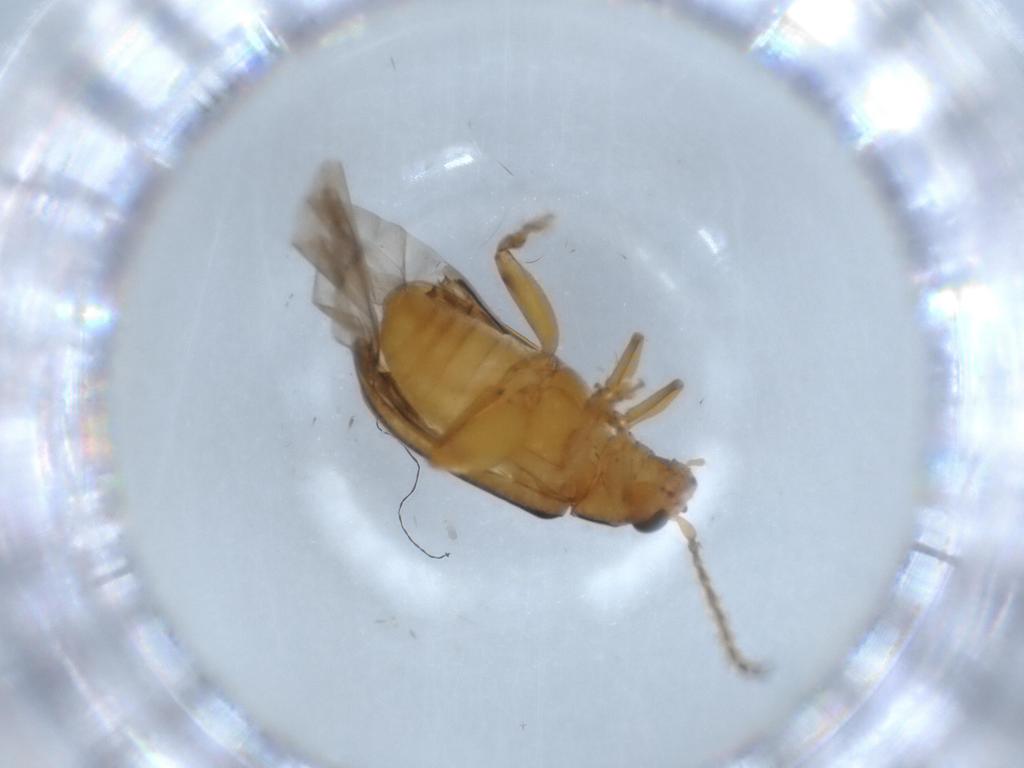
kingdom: Animalia
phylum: Arthropoda
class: Insecta
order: Coleoptera
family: Chrysomelidae
